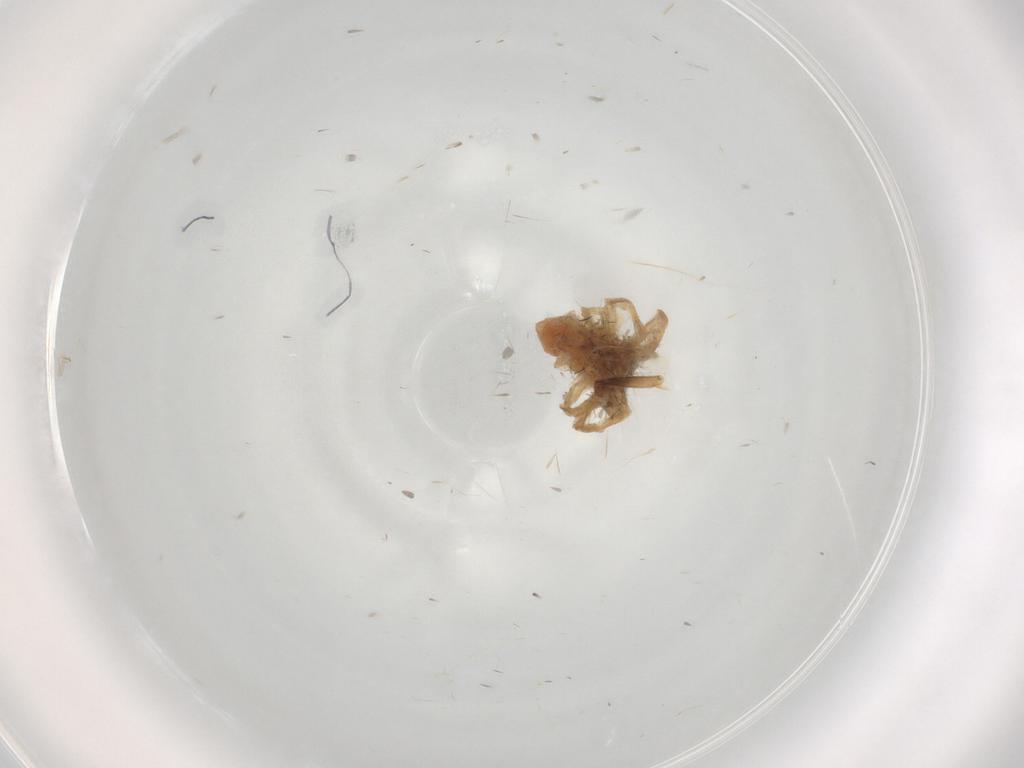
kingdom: Animalia
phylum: Arthropoda
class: Arachnida
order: Araneae
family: Thomisidae
